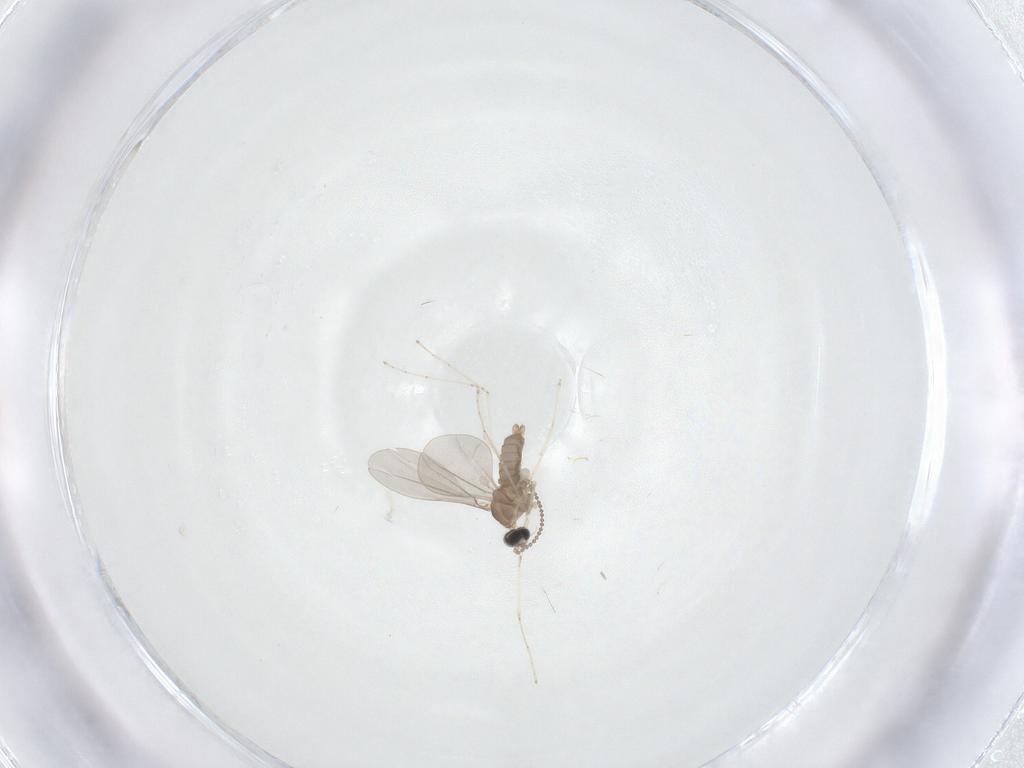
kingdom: Animalia
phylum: Arthropoda
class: Insecta
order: Diptera
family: Cecidomyiidae
